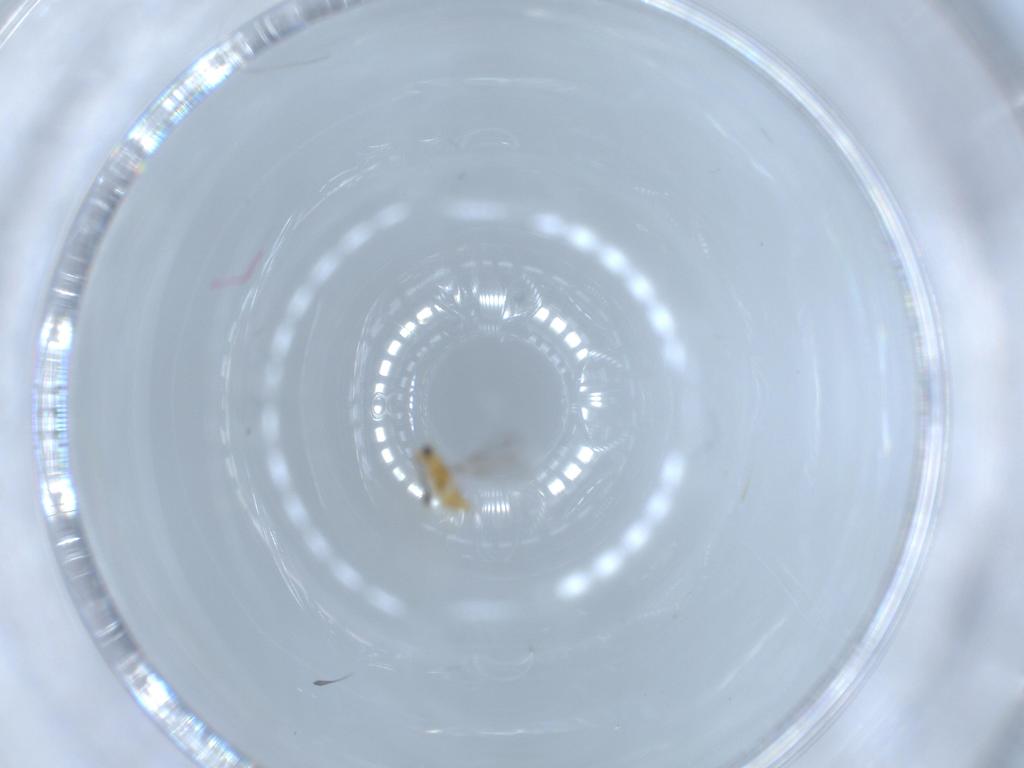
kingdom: Animalia
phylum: Arthropoda
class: Insecta
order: Hymenoptera
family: Mymaridae
